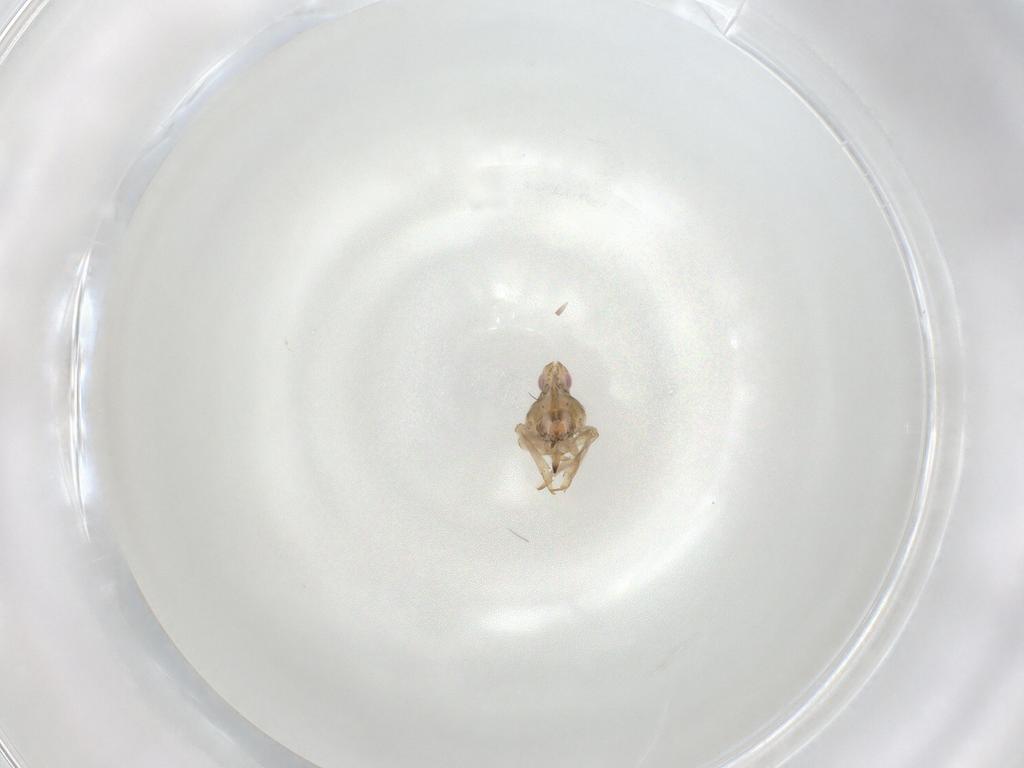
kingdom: Animalia
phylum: Arthropoda
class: Insecta
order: Hemiptera
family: Tropiduchidae
